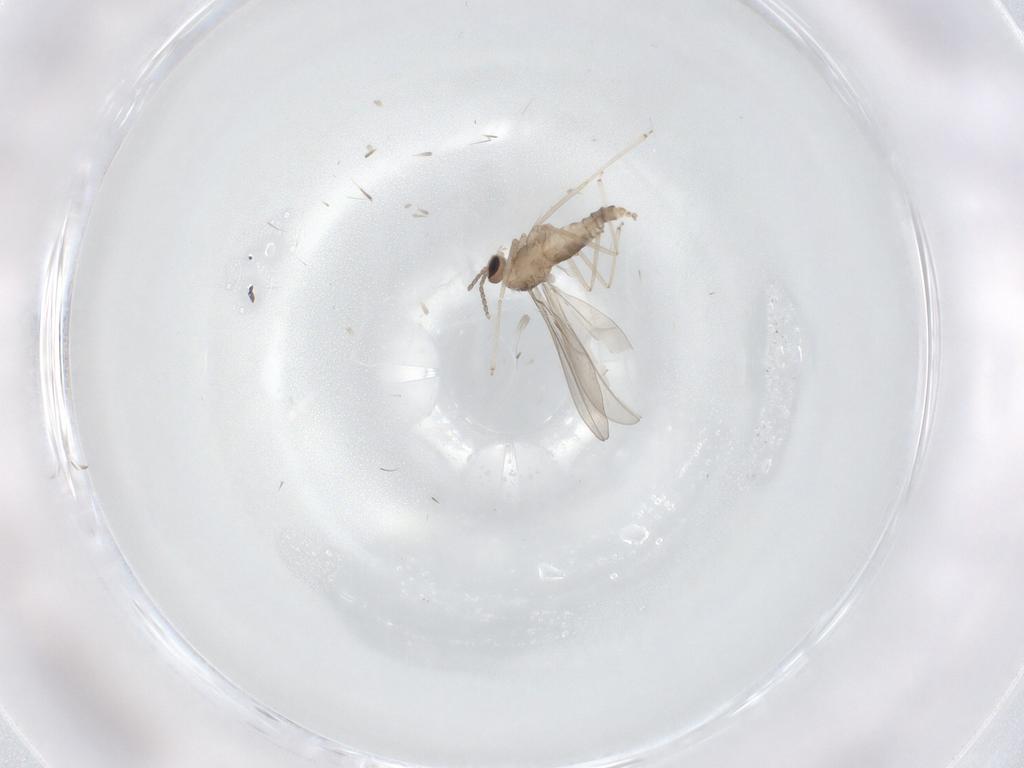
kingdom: Animalia
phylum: Arthropoda
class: Insecta
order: Diptera
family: Cecidomyiidae
